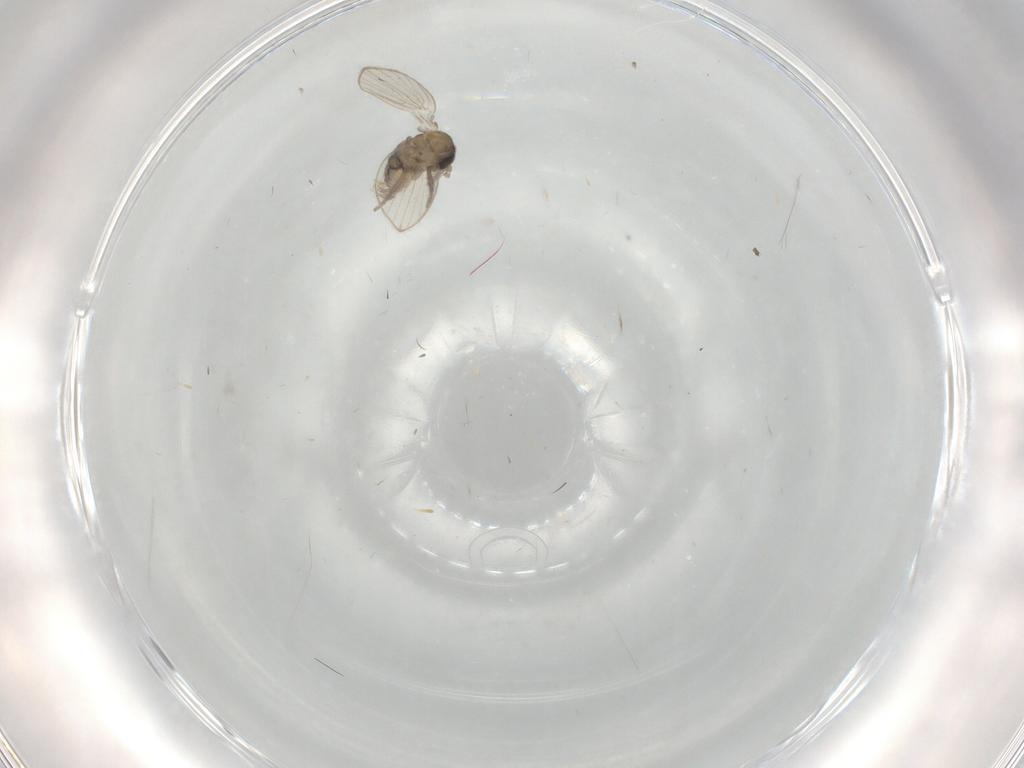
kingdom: Animalia
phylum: Arthropoda
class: Insecta
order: Diptera
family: Psychodidae
